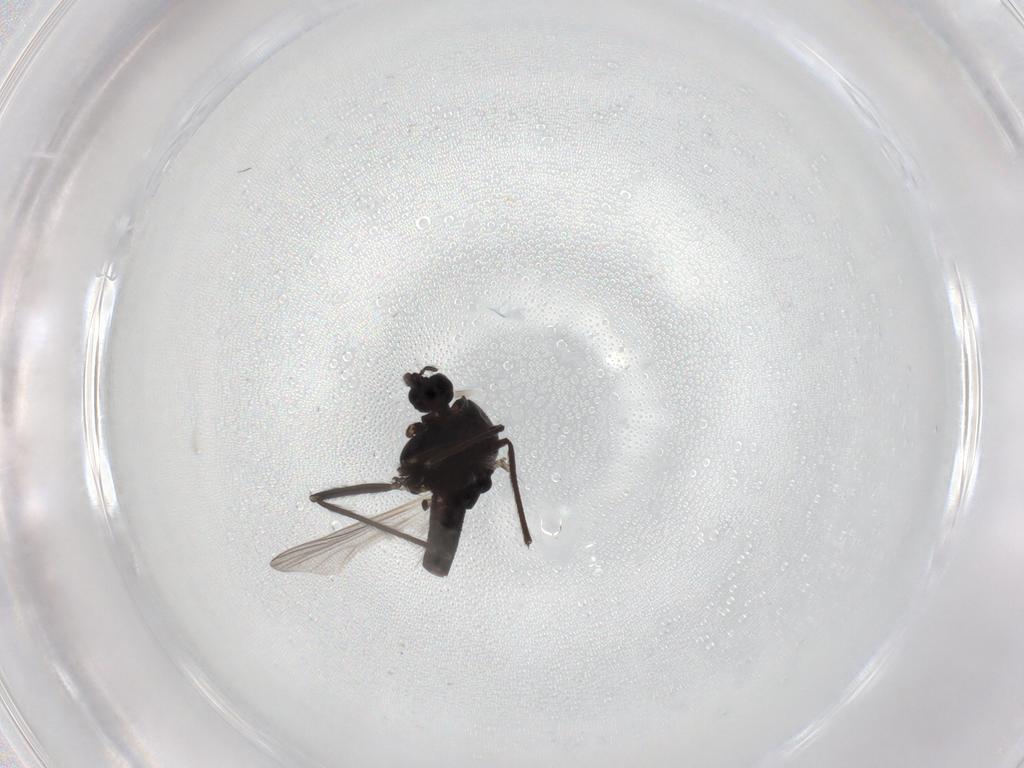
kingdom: Animalia
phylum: Arthropoda
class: Insecta
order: Diptera
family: Chironomidae
